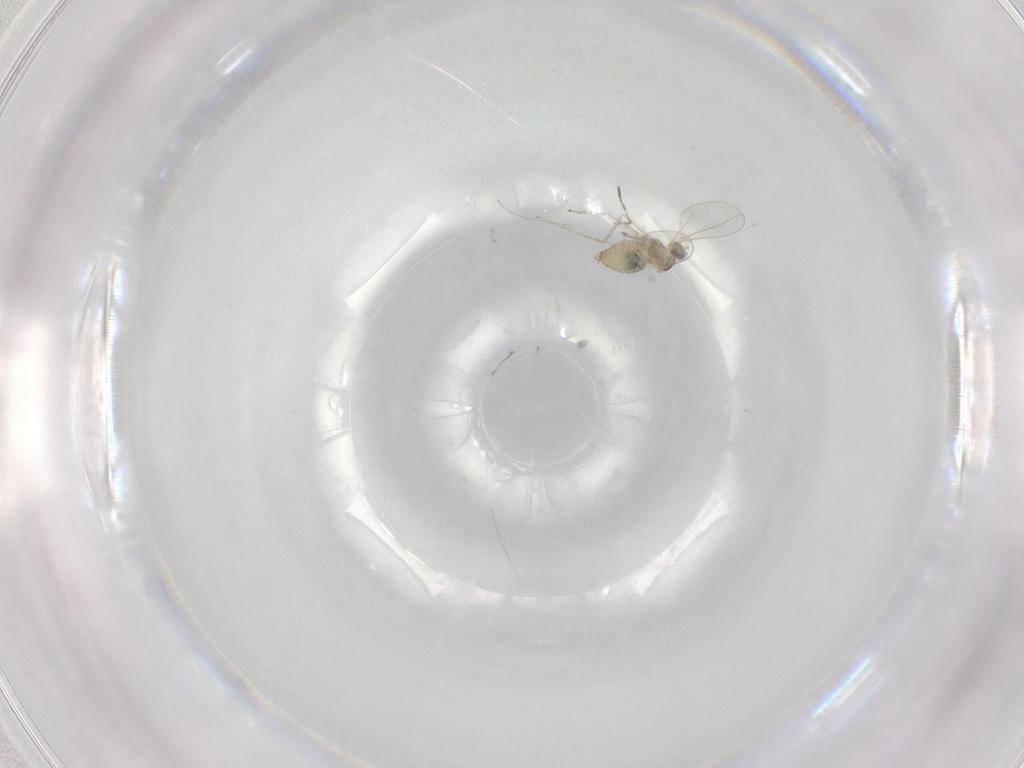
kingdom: Animalia
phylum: Arthropoda
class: Insecta
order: Diptera
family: Cecidomyiidae
